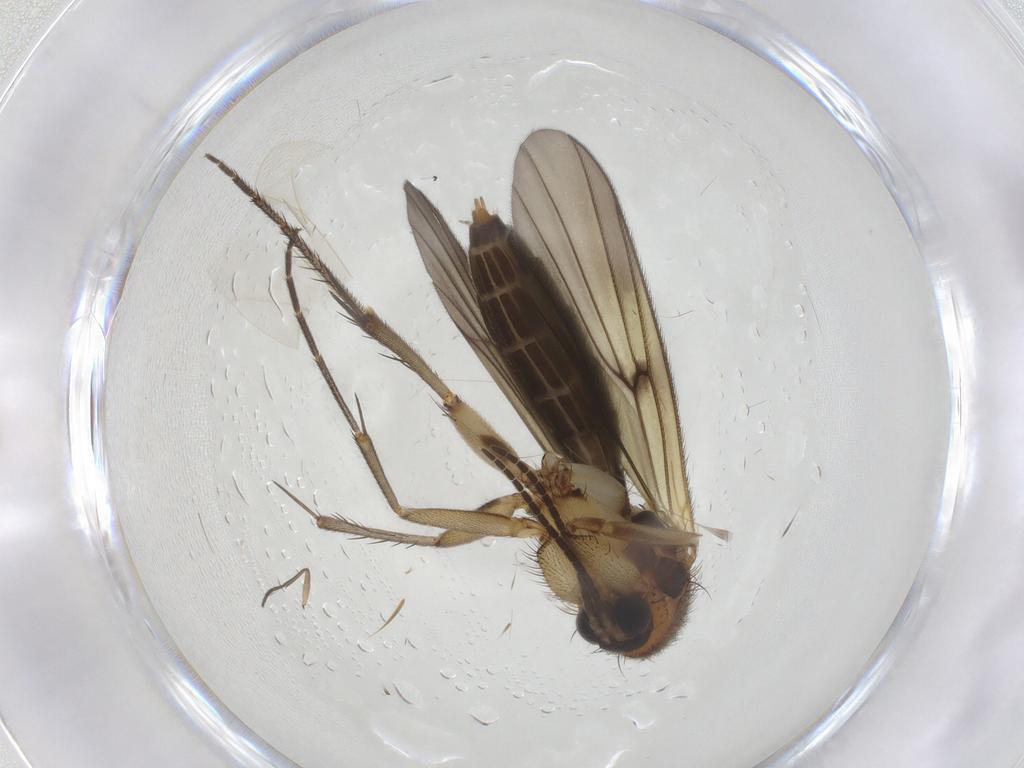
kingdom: Animalia
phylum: Arthropoda
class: Insecta
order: Diptera
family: Mycetophilidae
